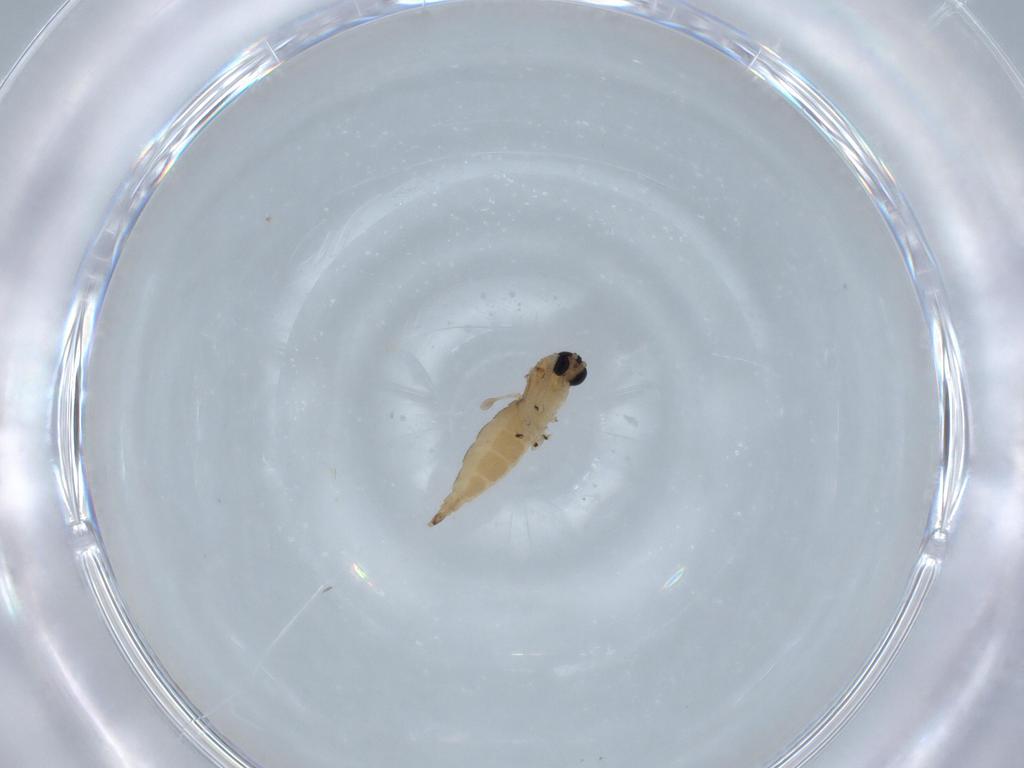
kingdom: Animalia
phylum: Arthropoda
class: Insecta
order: Diptera
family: Sciaridae
